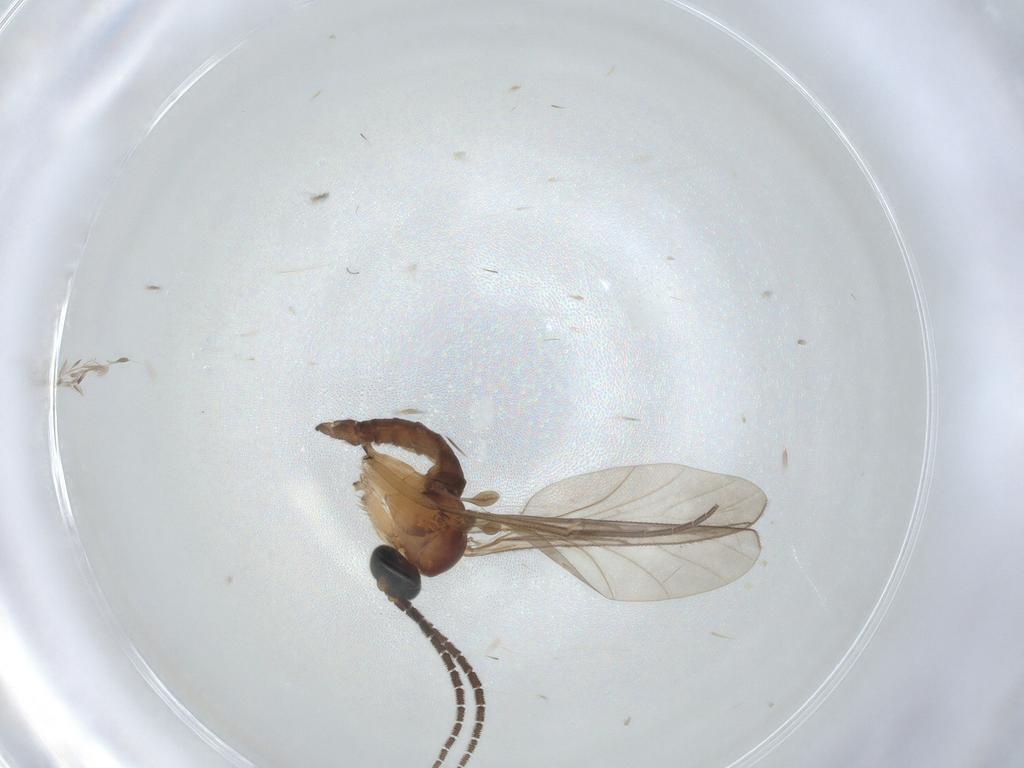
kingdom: Animalia
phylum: Arthropoda
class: Insecta
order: Diptera
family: Sciaridae
